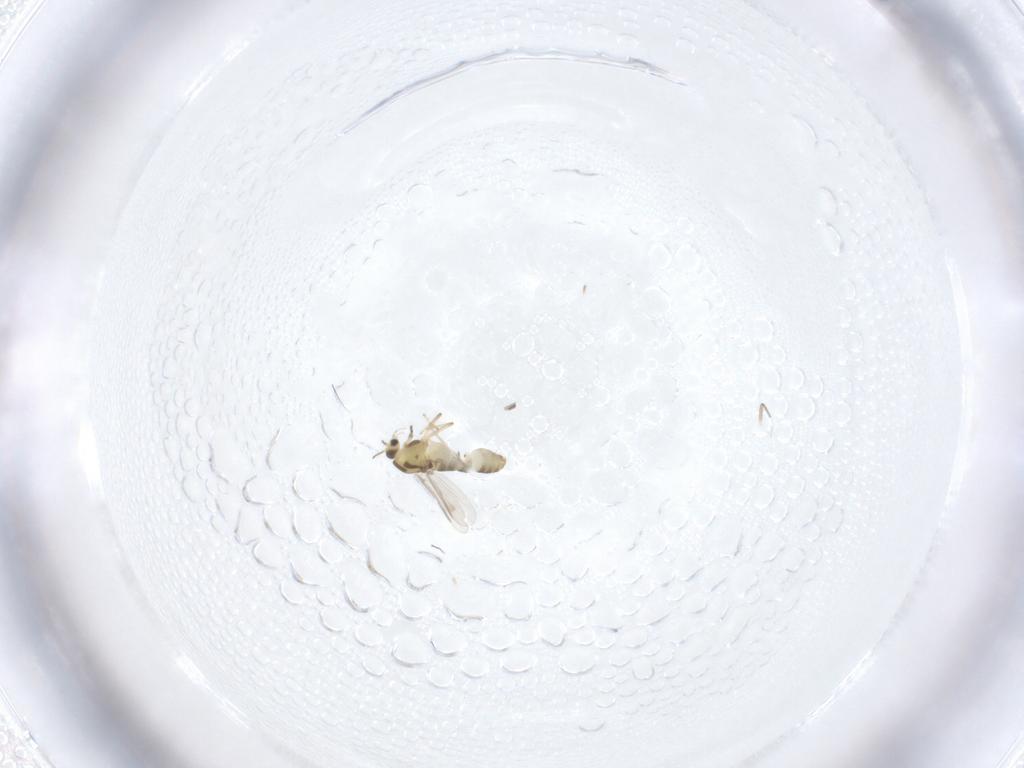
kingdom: Animalia
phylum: Arthropoda
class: Insecta
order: Diptera
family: Chironomidae
